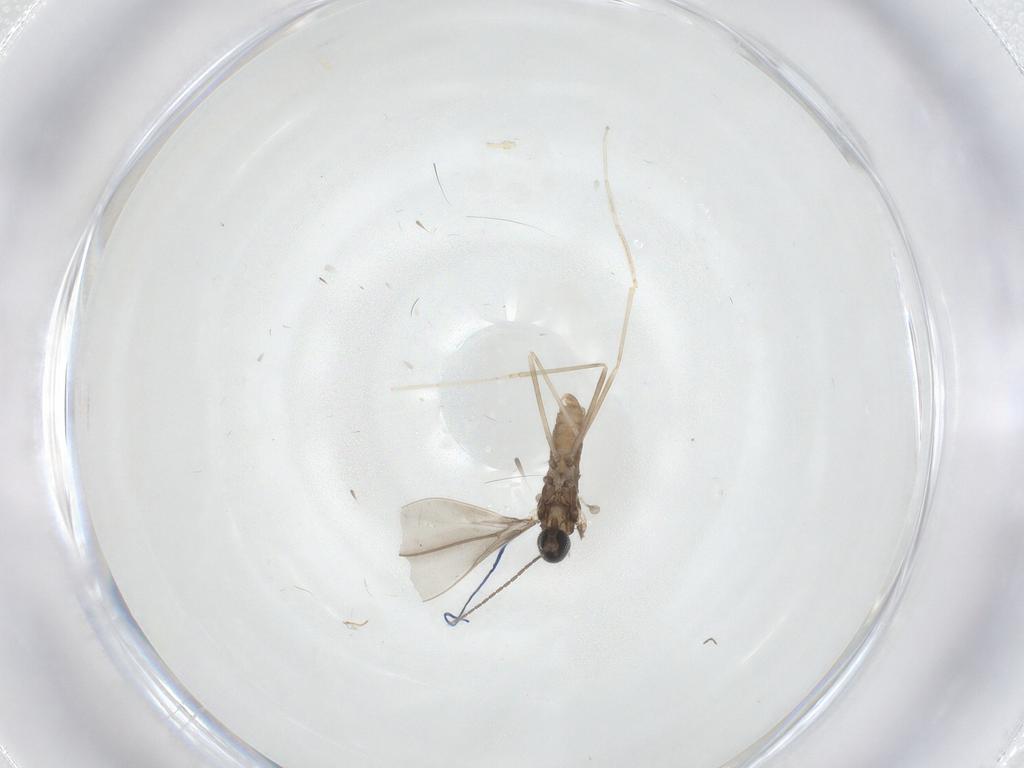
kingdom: Animalia
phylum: Arthropoda
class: Insecta
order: Diptera
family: Cecidomyiidae
